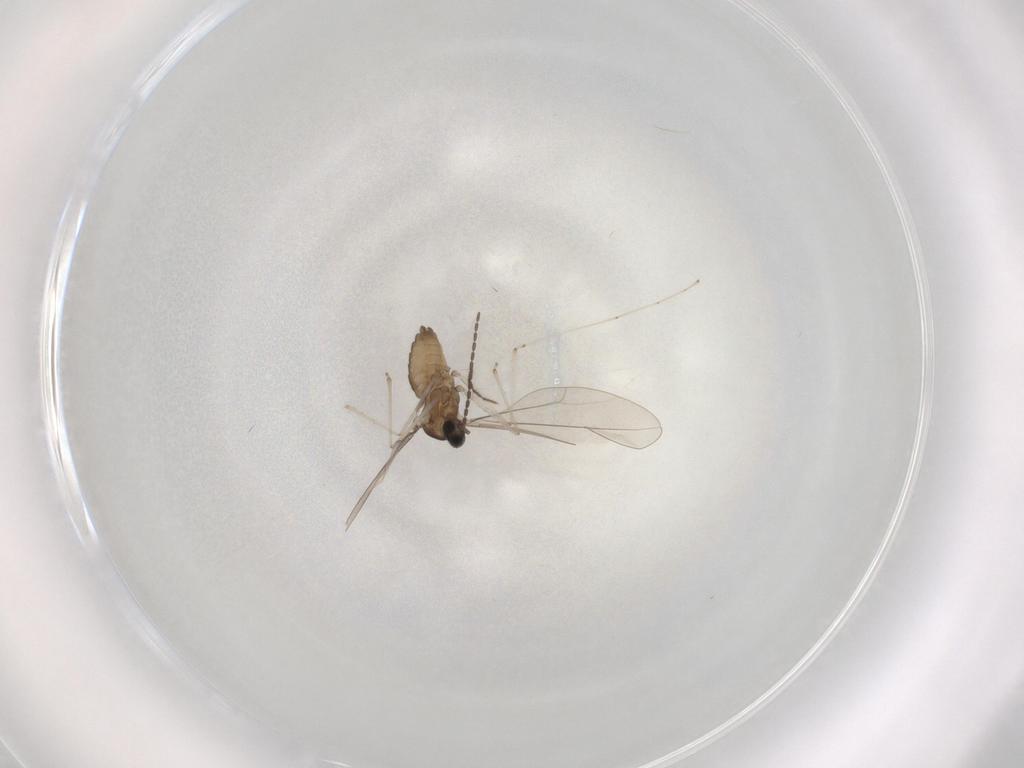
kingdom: Animalia
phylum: Arthropoda
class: Insecta
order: Diptera
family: Cecidomyiidae
